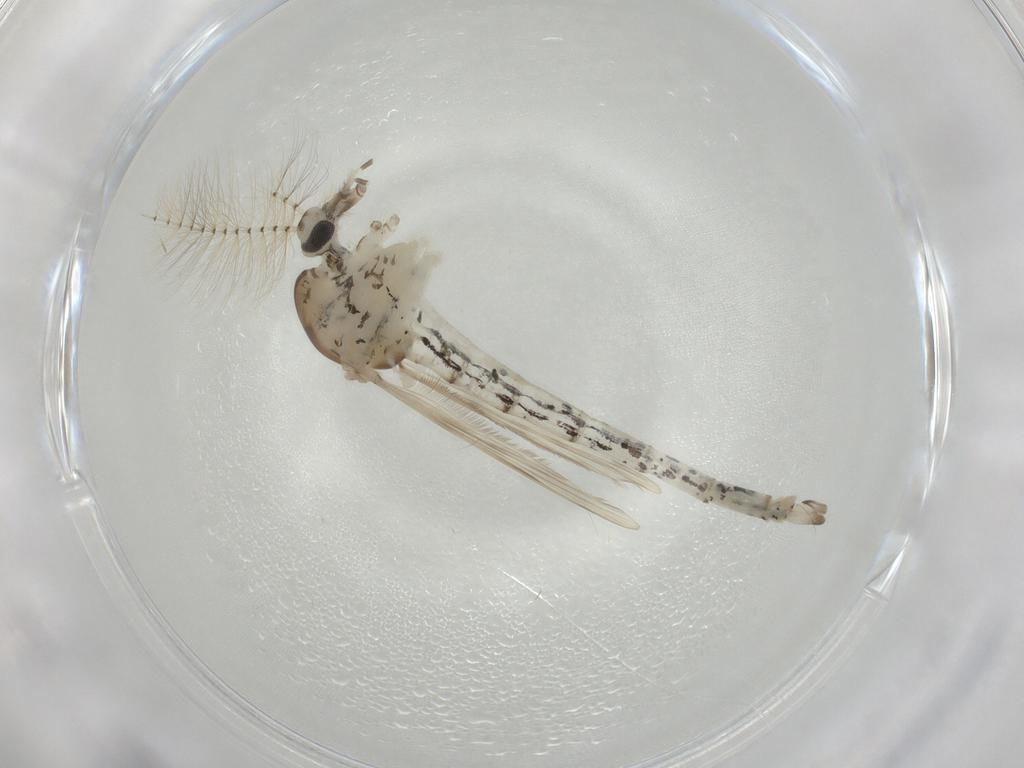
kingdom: Animalia
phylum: Arthropoda
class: Insecta
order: Diptera
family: Chaoboridae
